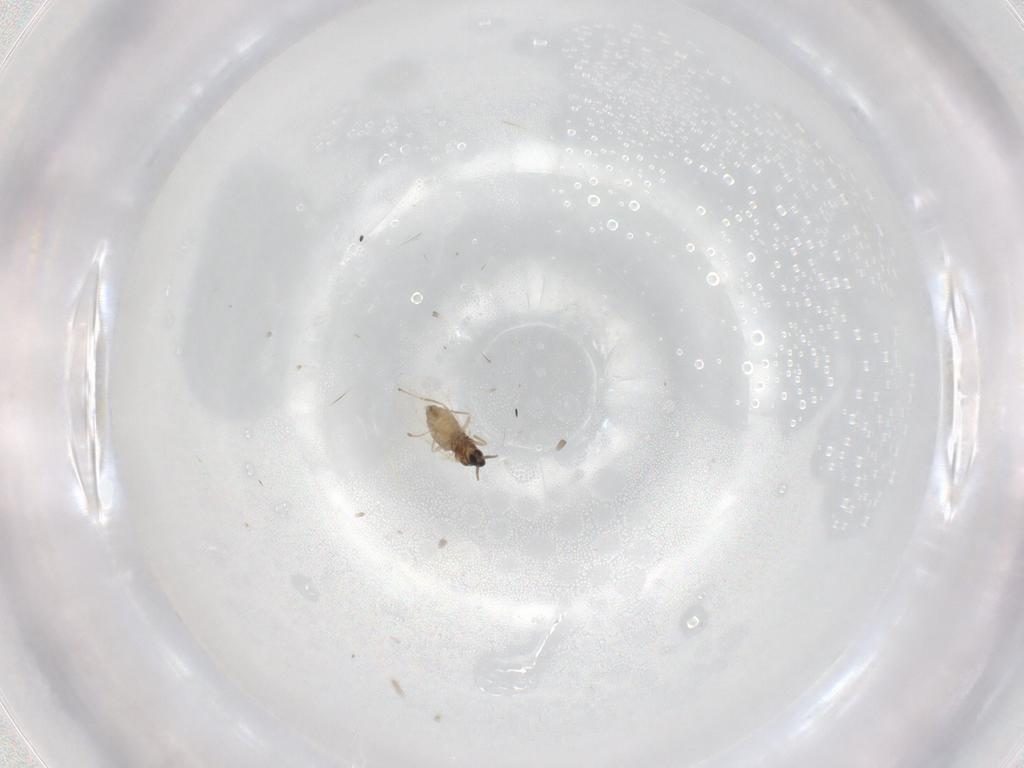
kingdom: Animalia
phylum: Arthropoda
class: Insecta
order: Diptera
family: Cecidomyiidae
